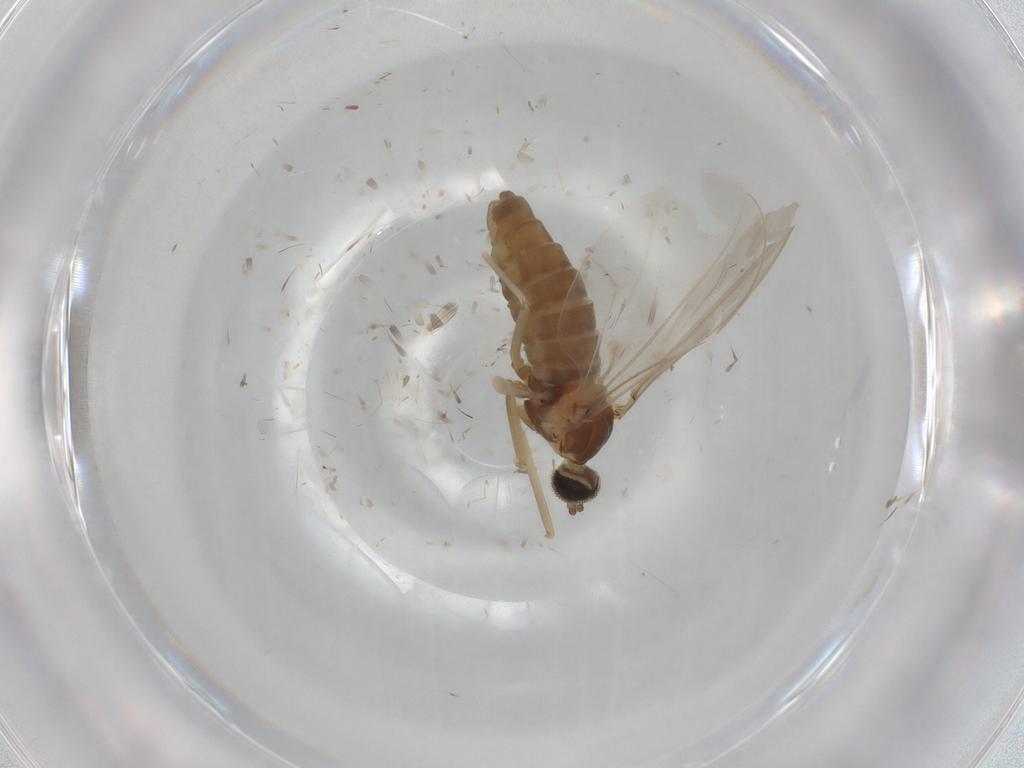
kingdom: Animalia
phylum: Arthropoda
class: Insecta
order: Diptera
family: Cecidomyiidae
